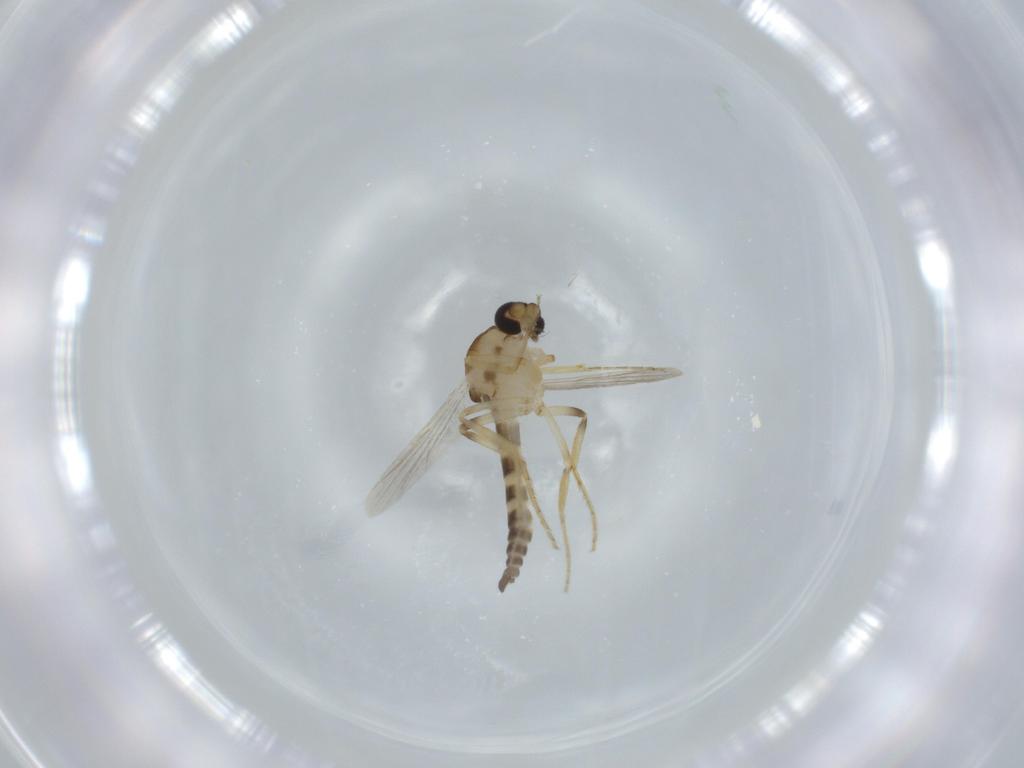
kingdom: Animalia
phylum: Arthropoda
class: Insecta
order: Diptera
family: Ceratopogonidae
